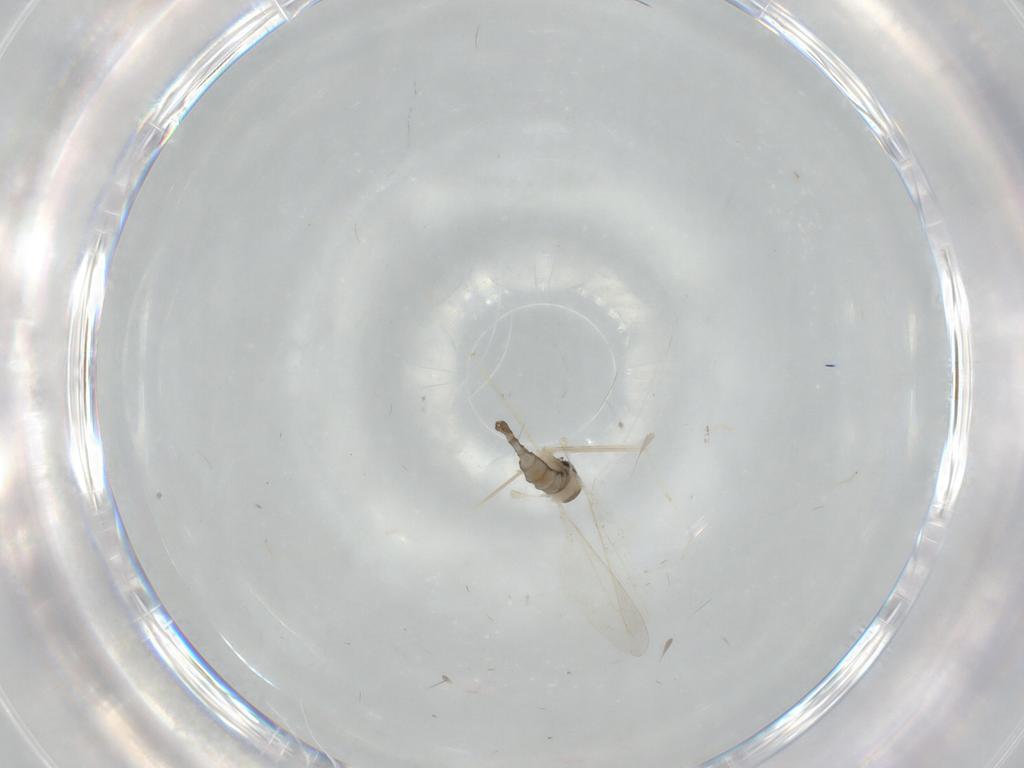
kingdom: Animalia
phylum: Arthropoda
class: Insecta
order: Diptera
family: Cecidomyiidae
